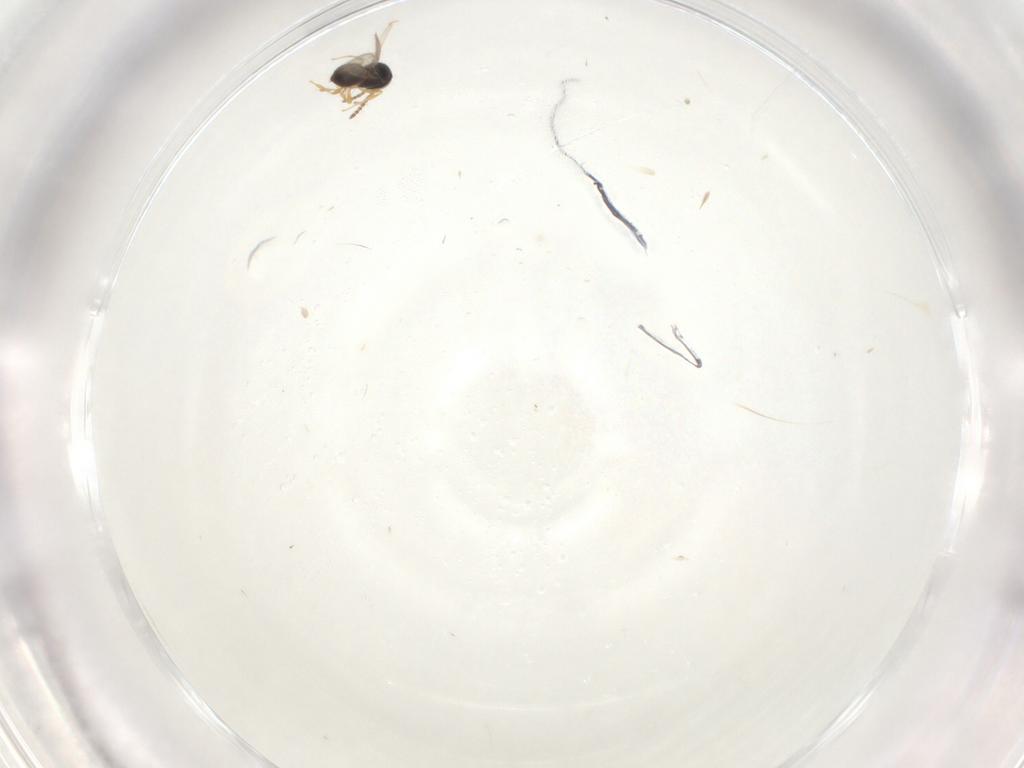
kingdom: Animalia
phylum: Arthropoda
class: Insecta
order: Hymenoptera
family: Scelionidae
